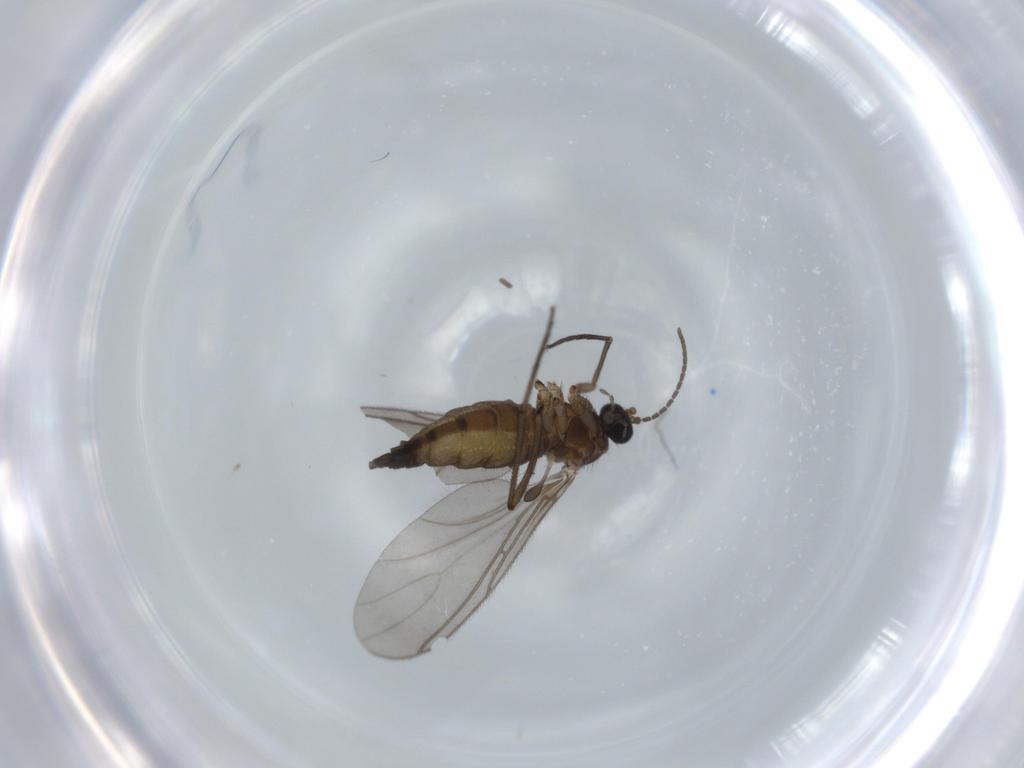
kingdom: Animalia
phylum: Arthropoda
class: Insecta
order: Diptera
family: Sciaridae
